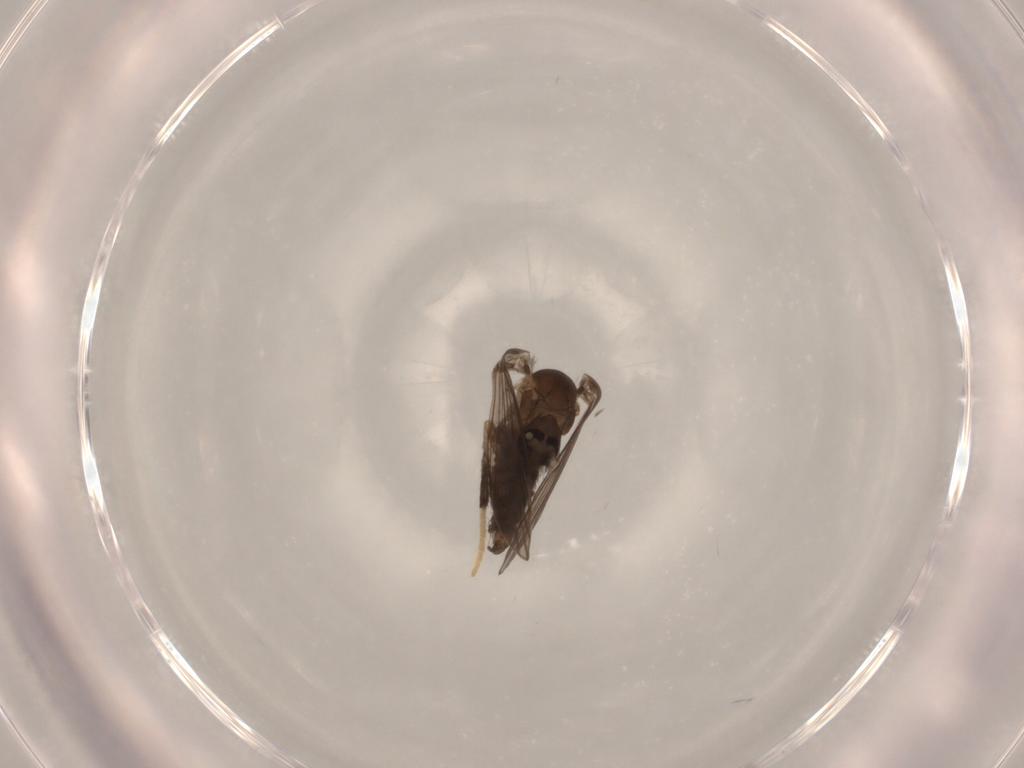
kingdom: Animalia
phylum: Arthropoda
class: Insecta
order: Diptera
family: Psychodidae
